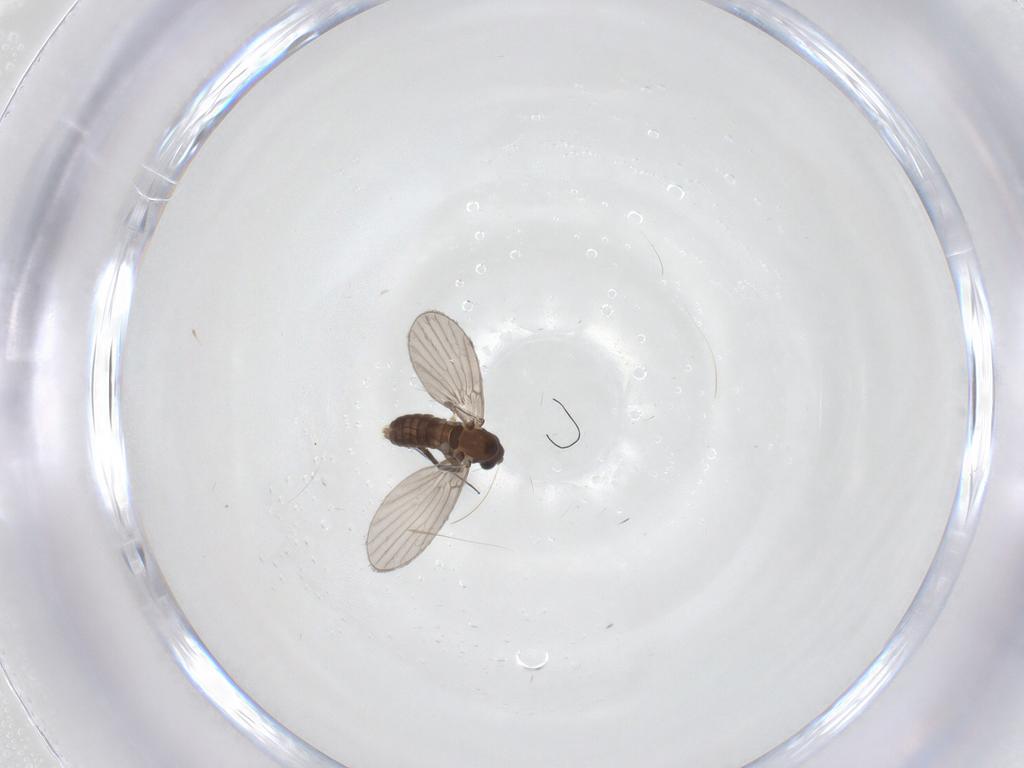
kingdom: Animalia
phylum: Arthropoda
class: Insecta
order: Diptera
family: Cecidomyiidae
